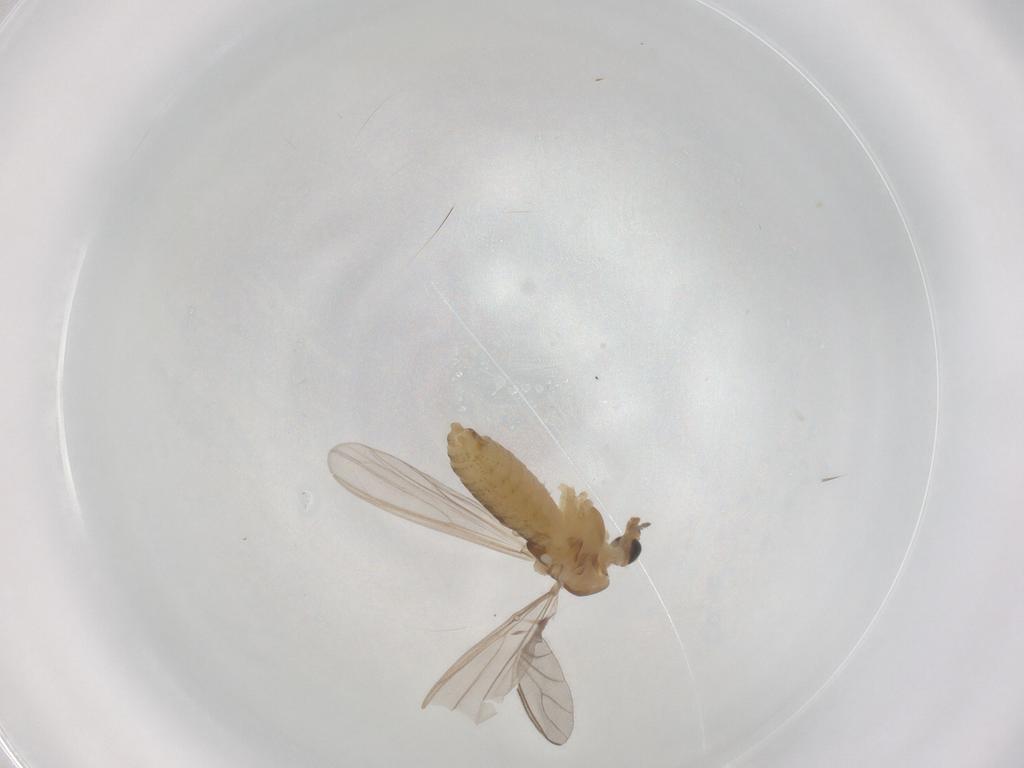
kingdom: Animalia
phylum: Arthropoda
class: Insecta
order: Diptera
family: Chironomidae
